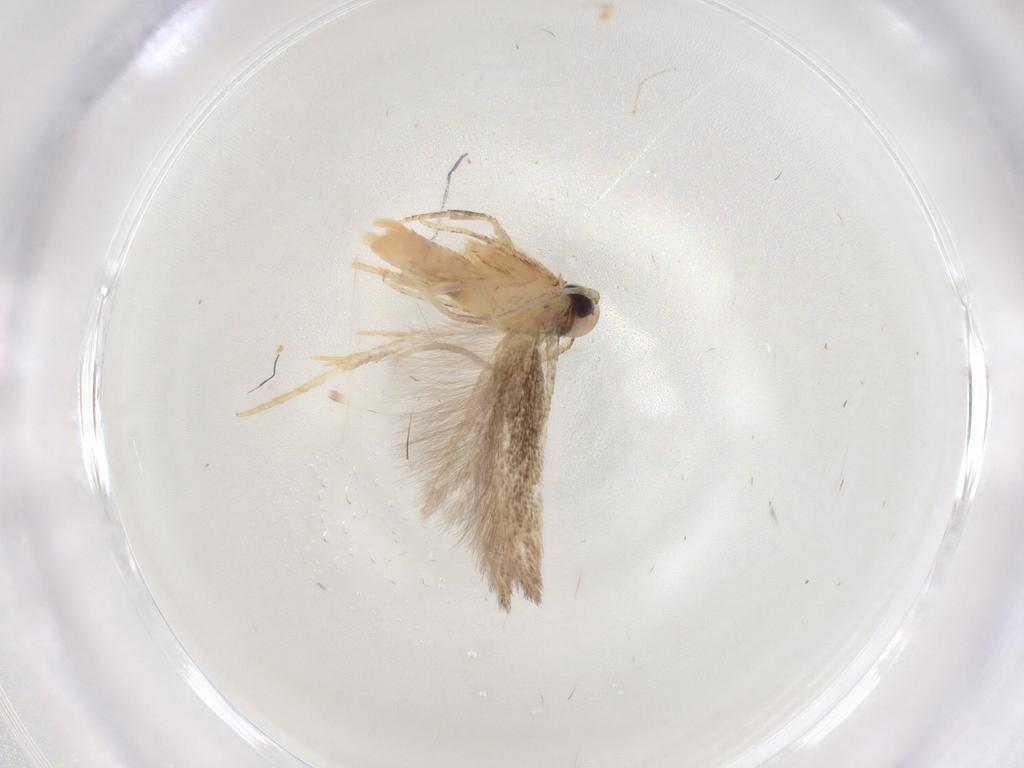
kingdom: Animalia
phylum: Arthropoda
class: Insecta
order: Lepidoptera
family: Cosmopterigidae
